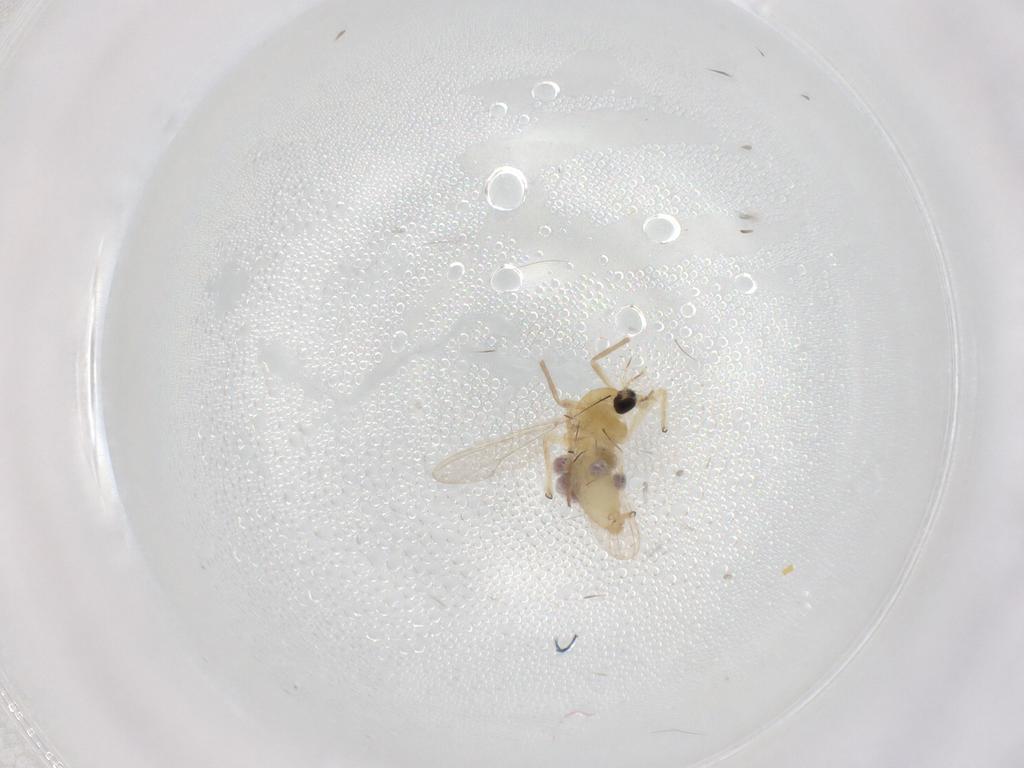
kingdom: Animalia
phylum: Arthropoda
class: Insecta
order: Diptera
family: Chironomidae
